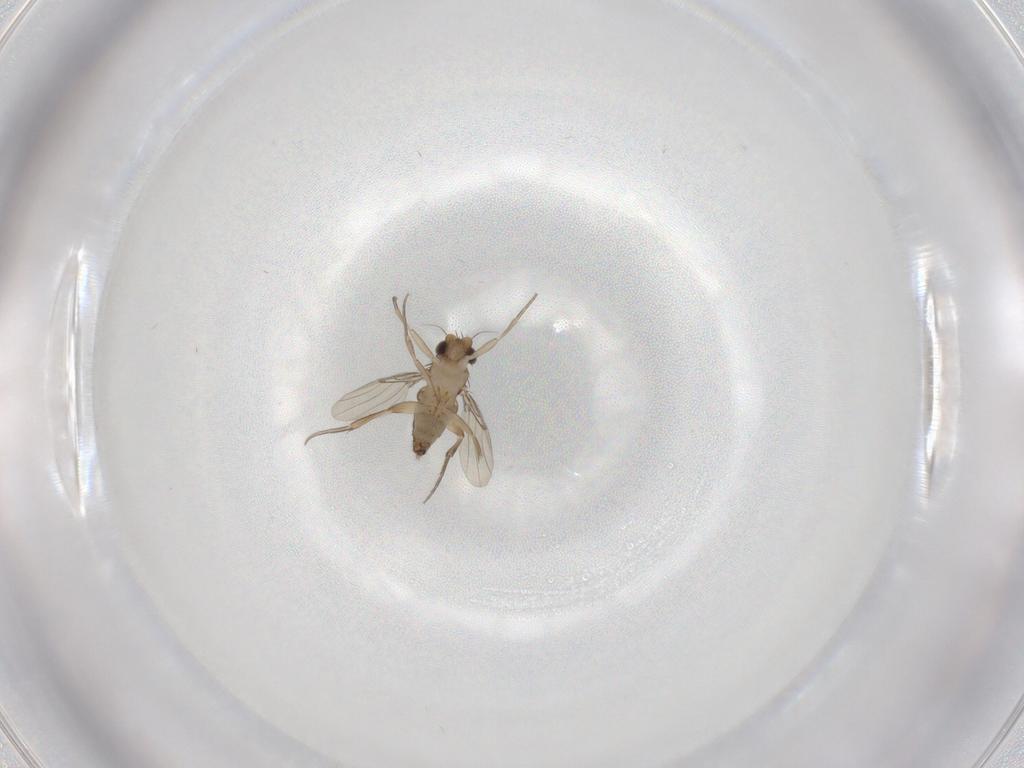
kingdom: Animalia
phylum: Arthropoda
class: Insecta
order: Diptera
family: Phoridae
